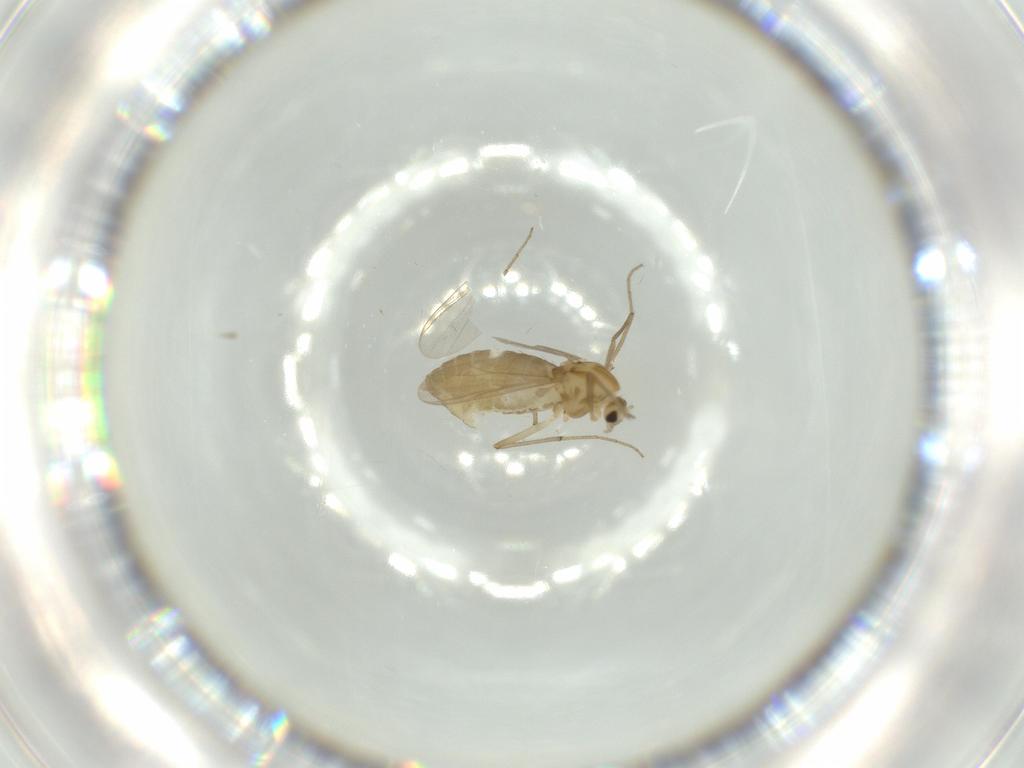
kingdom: Animalia
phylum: Arthropoda
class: Insecta
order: Diptera
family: Chironomidae
